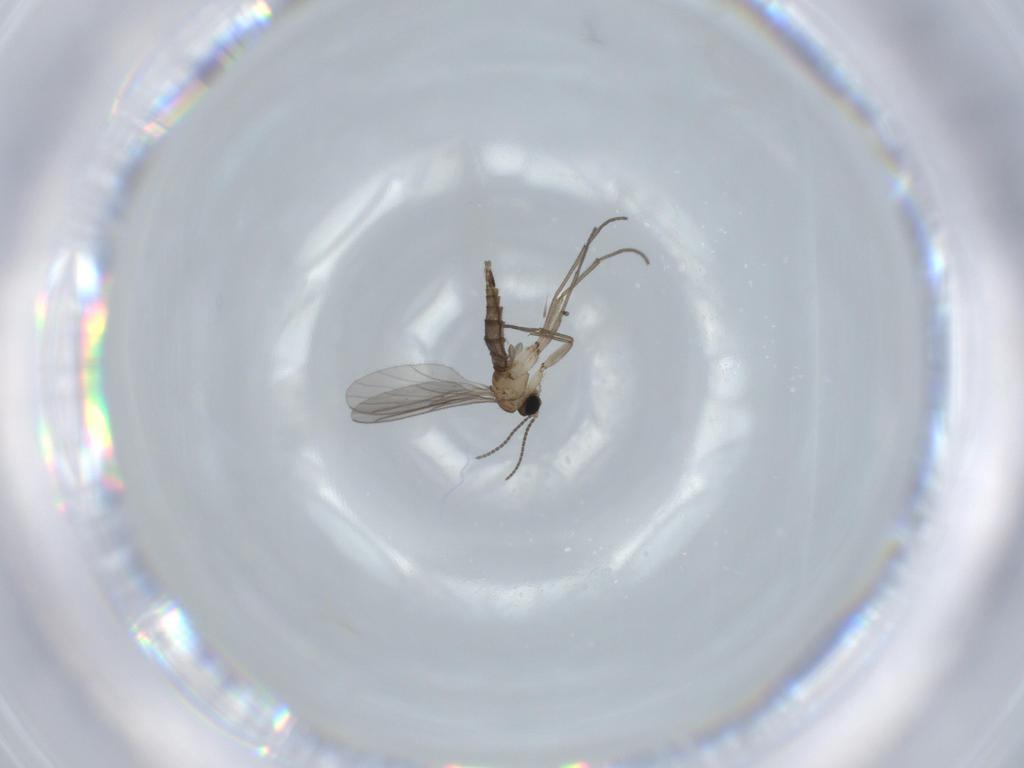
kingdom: Animalia
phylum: Arthropoda
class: Insecta
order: Diptera
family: Sciaridae
